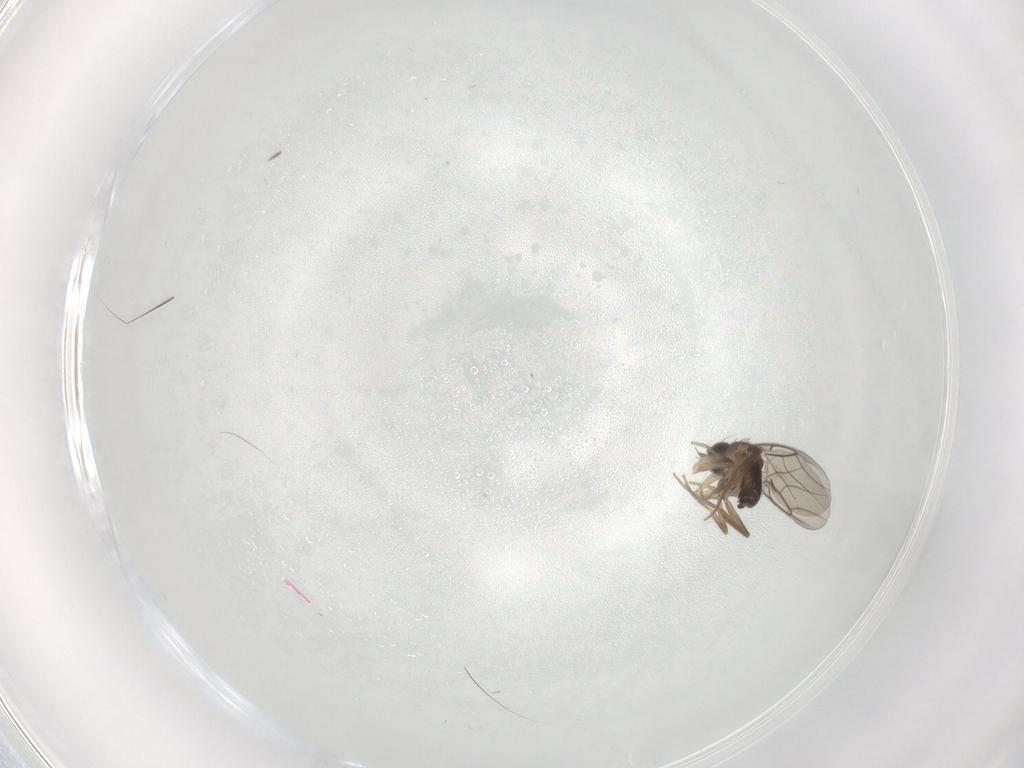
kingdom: Animalia
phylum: Arthropoda
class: Insecta
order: Diptera
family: Phoridae
